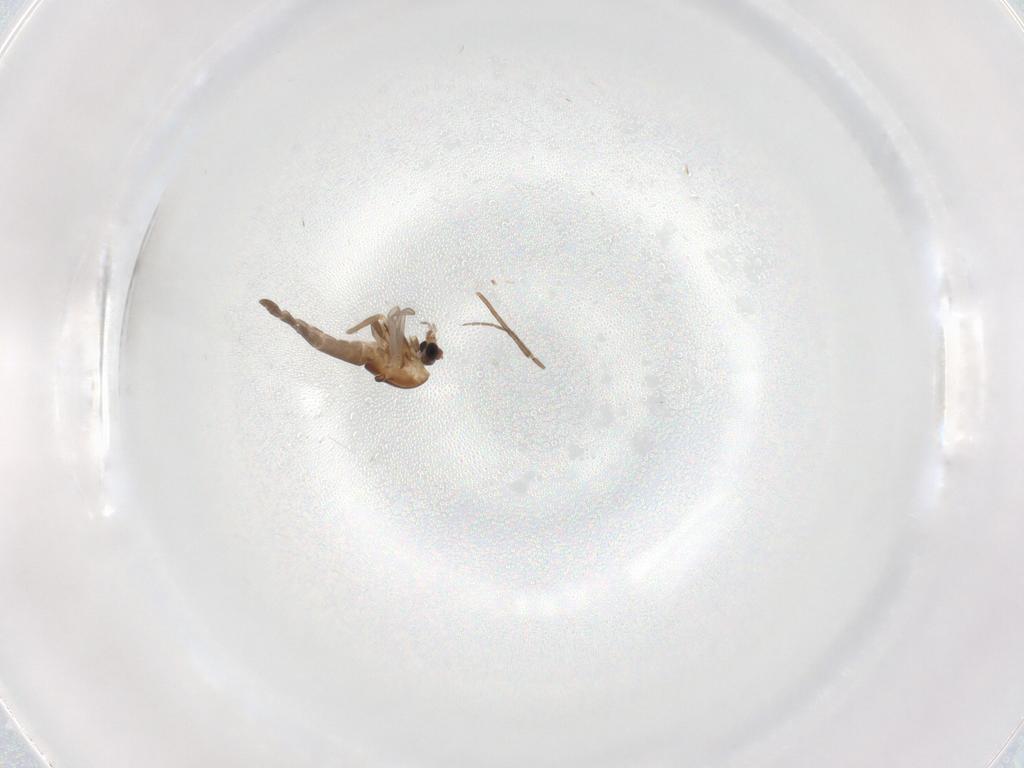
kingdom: Animalia
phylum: Arthropoda
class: Insecta
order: Diptera
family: Chironomidae
